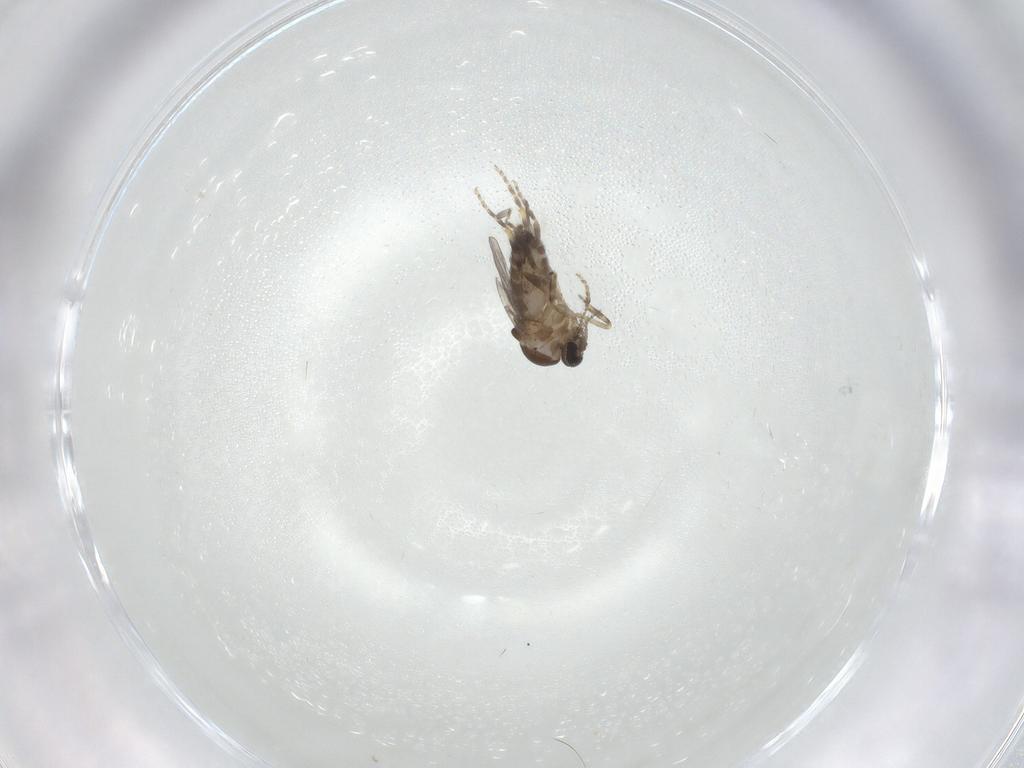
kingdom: Animalia
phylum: Arthropoda
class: Insecta
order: Diptera
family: Ceratopogonidae
